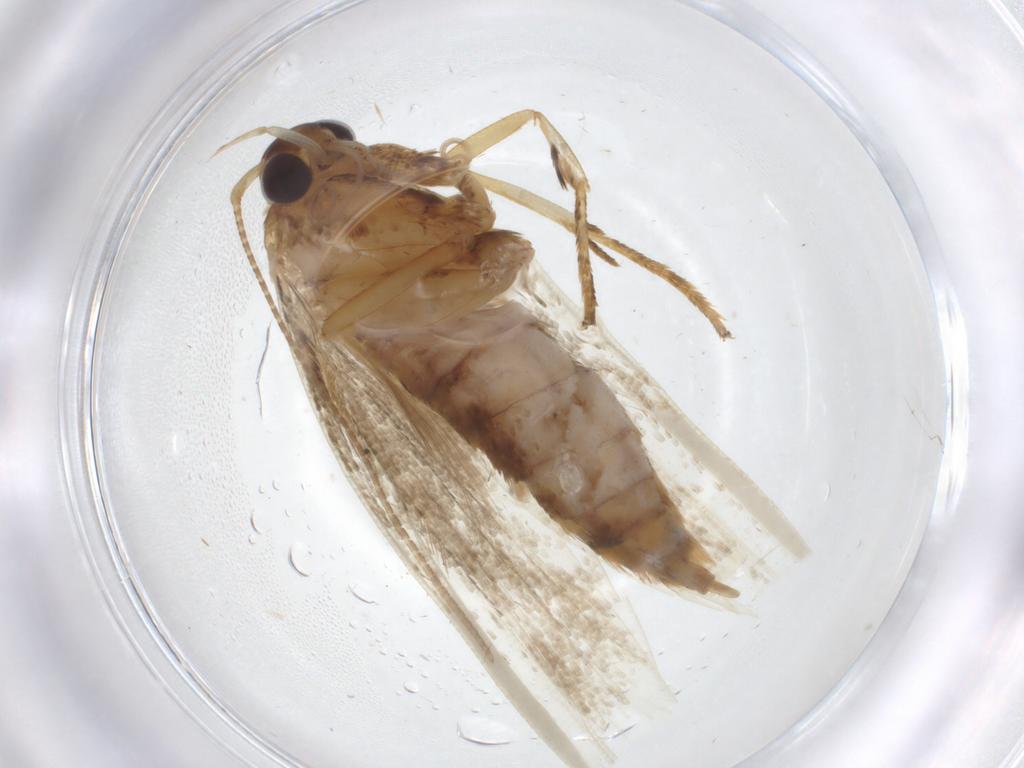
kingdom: Animalia
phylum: Arthropoda
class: Insecta
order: Lepidoptera
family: Blastobasidae
